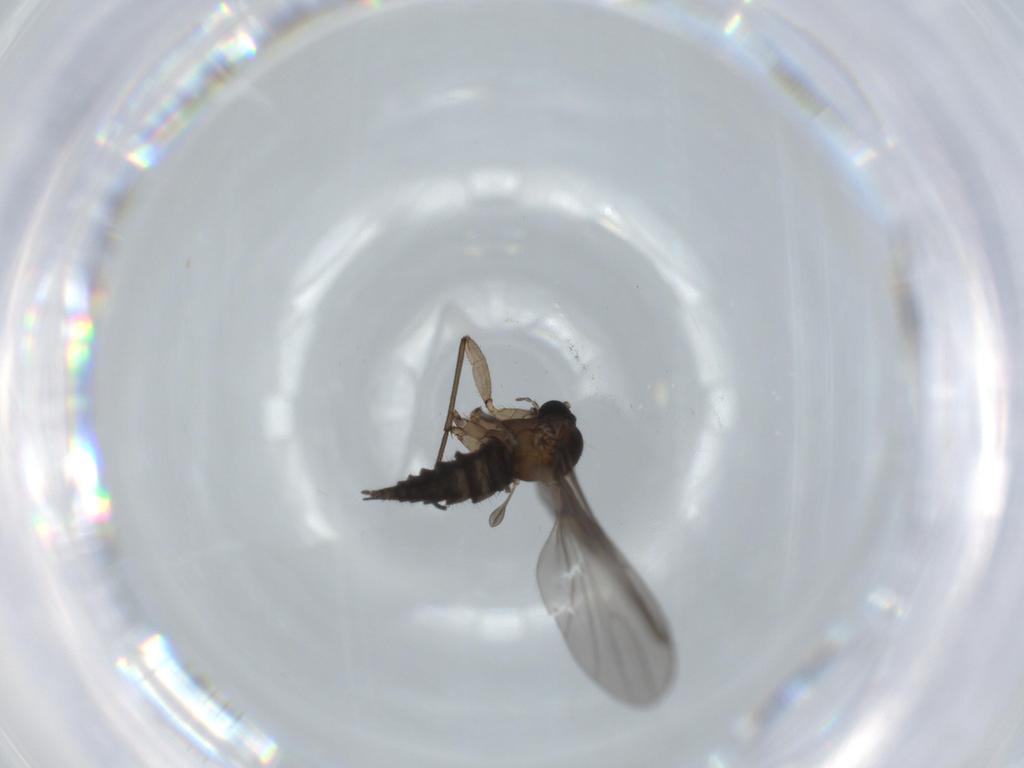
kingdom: Animalia
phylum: Arthropoda
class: Insecta
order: Diptera
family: Sciaridae
